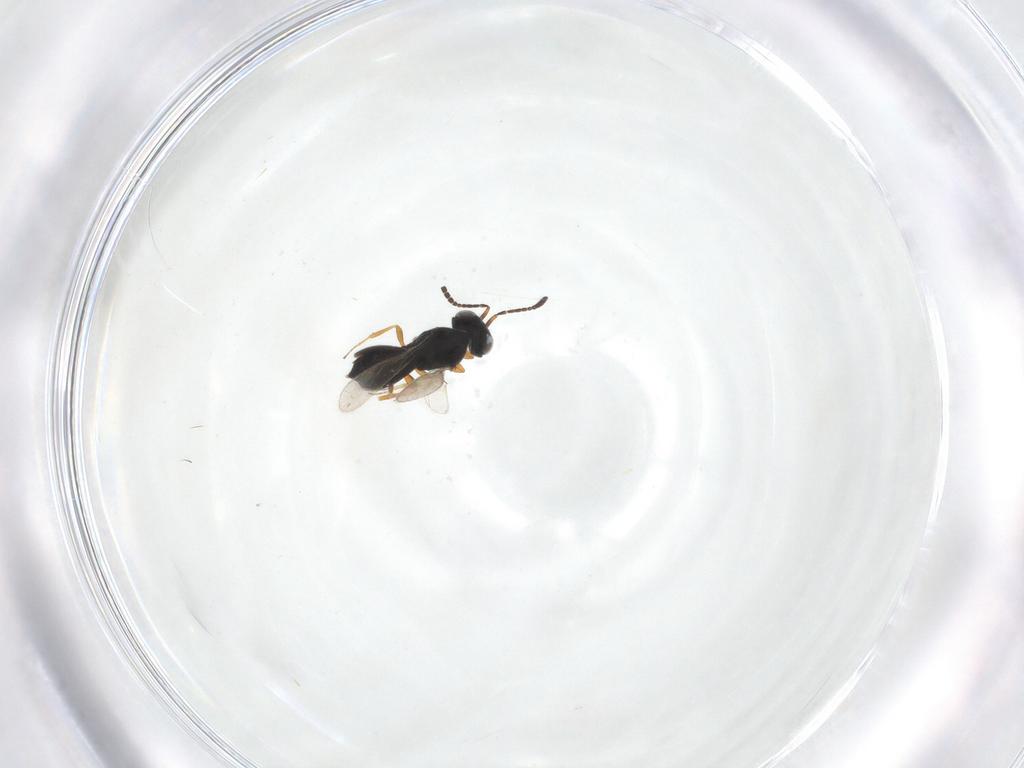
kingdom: Animalia
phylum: Arthropoda
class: Insecta
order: Hymenoptera
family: Scelionidae
